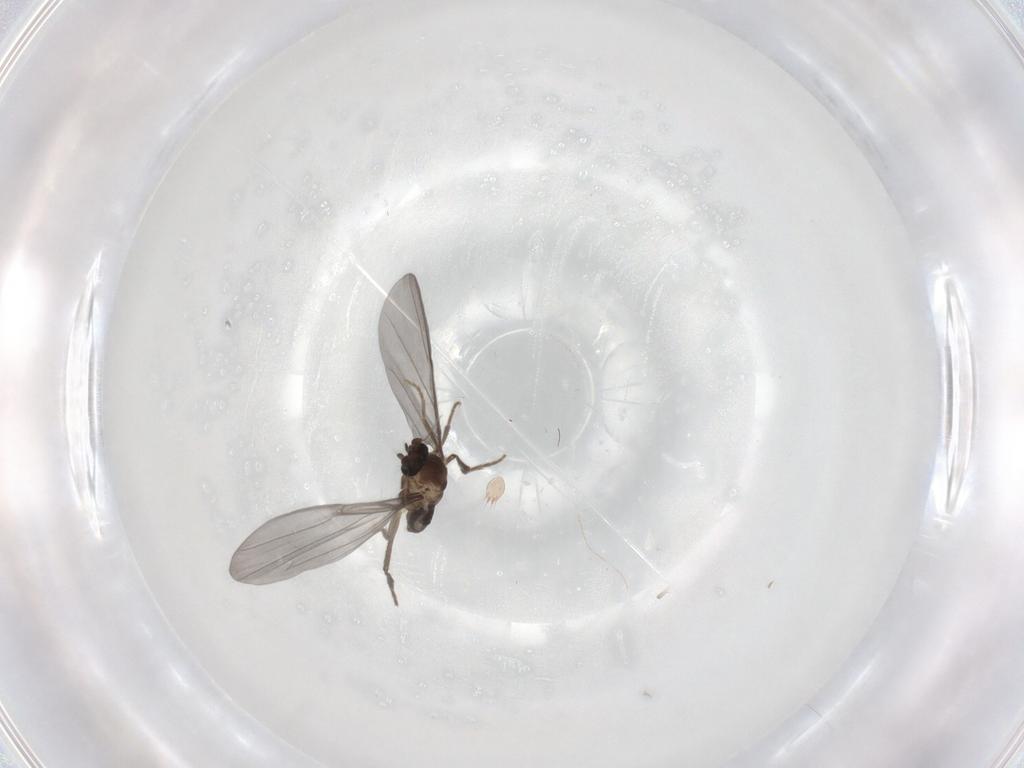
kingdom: Animalia
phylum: Arthropoda
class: Insecta
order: Diptera
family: Phoridae
